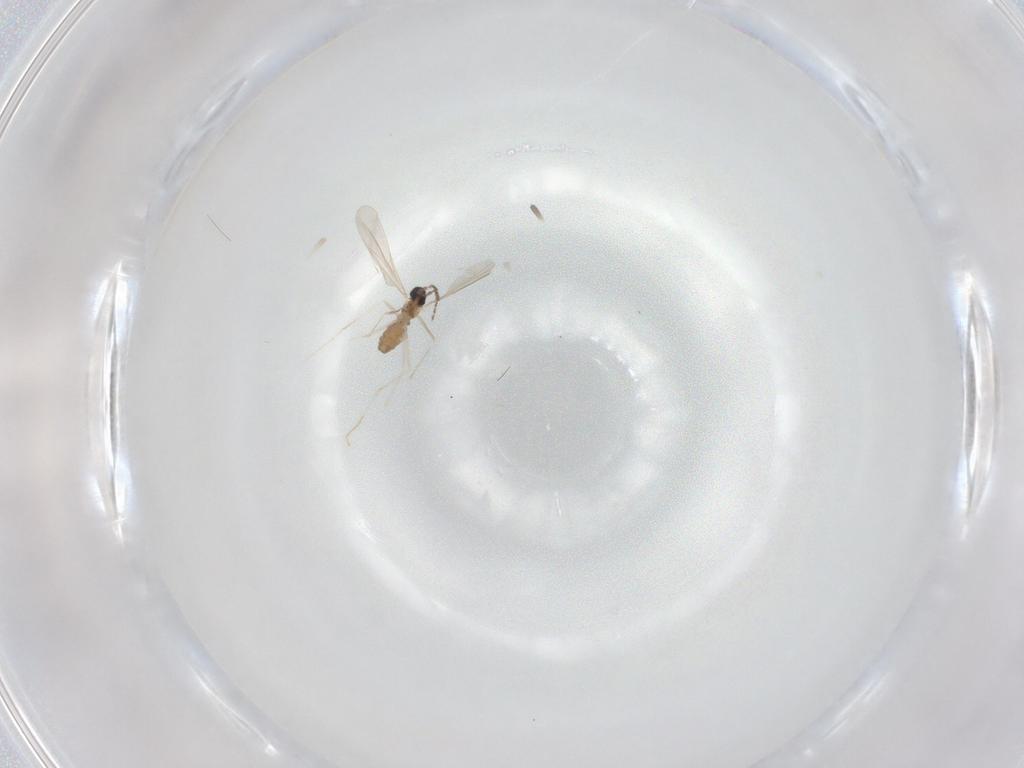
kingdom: Animalia
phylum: Arthropoda
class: Insecta
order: Diptera
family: Cecidomyiidae
